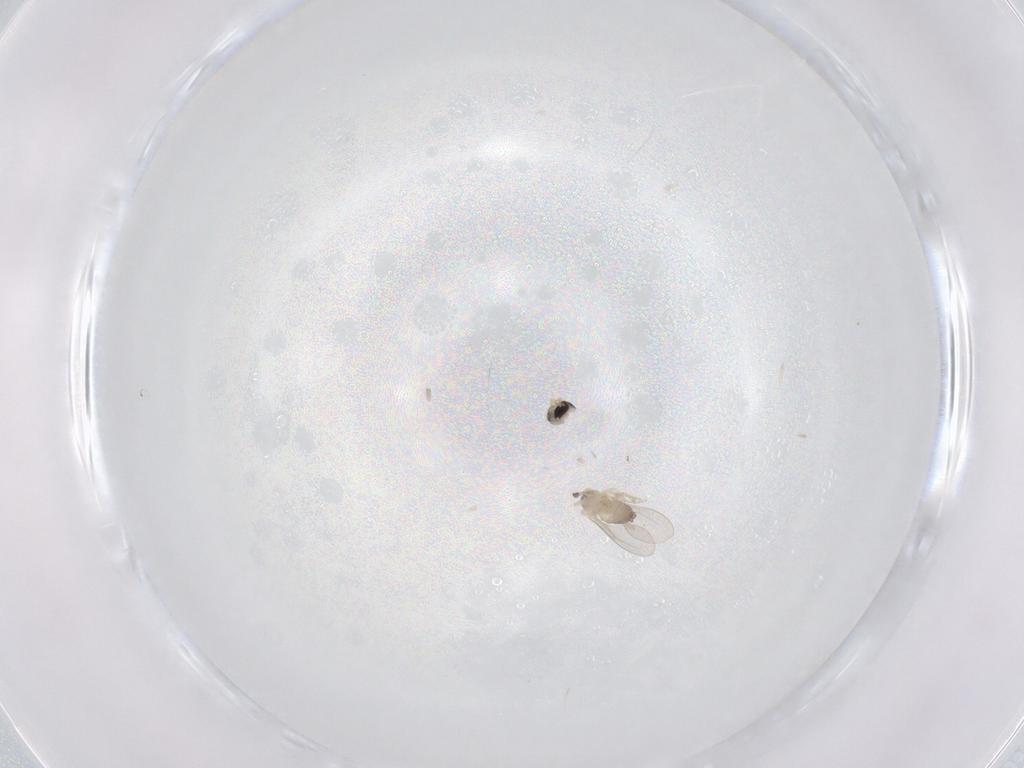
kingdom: Animalia
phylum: Arthropoda
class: Insecta
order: Diptera
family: Cecidomyiidae
